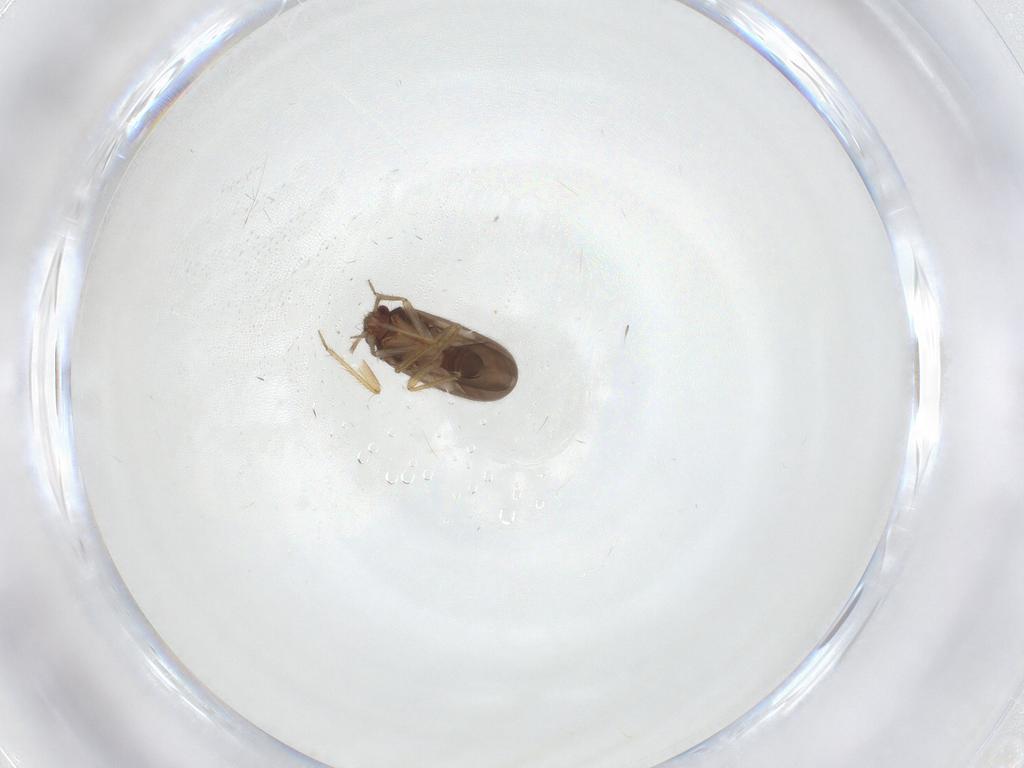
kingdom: Animalia
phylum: Arthropoda
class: Insecta
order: Hemiptera
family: Ceratocombidae
